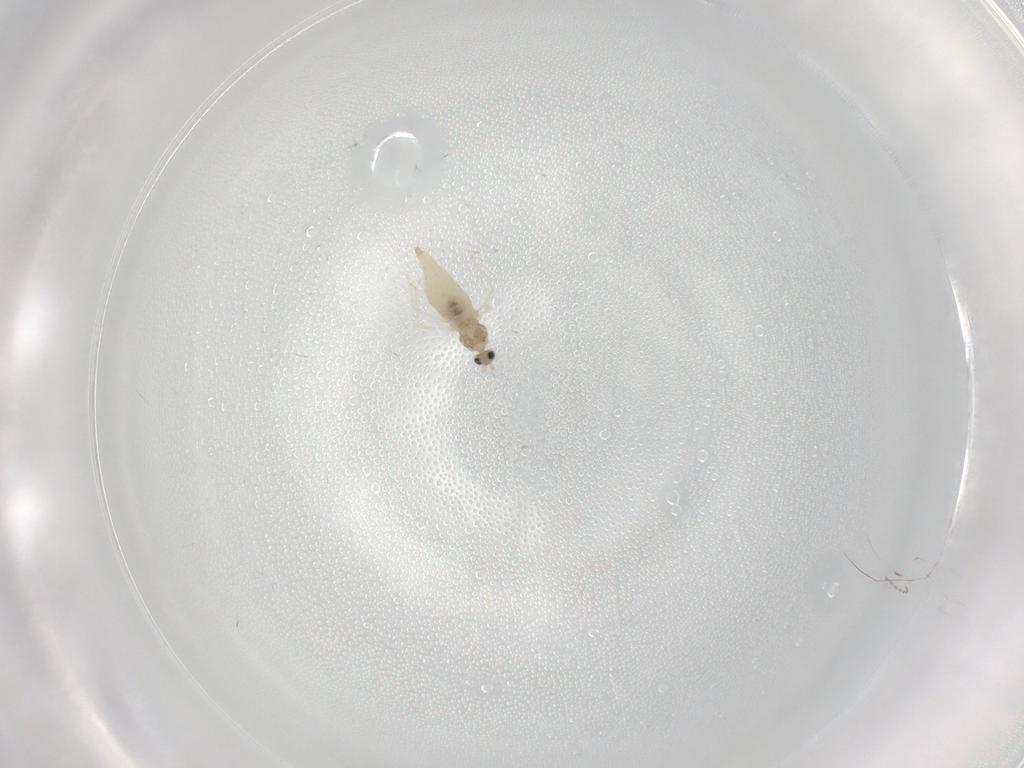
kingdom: Animalia
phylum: Arthropoda
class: Insecta
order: Diptera
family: Cecidomyiidae
